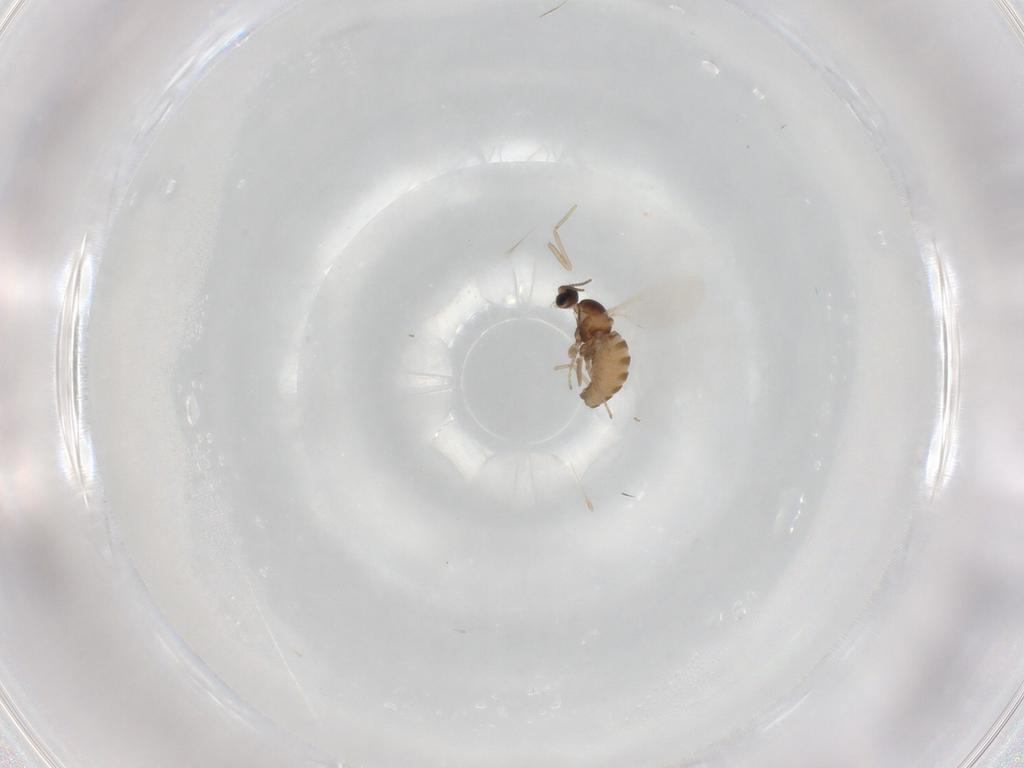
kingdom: Animalia
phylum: Arthropoda
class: Insecta
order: Diptera
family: Cecidomyiidae
